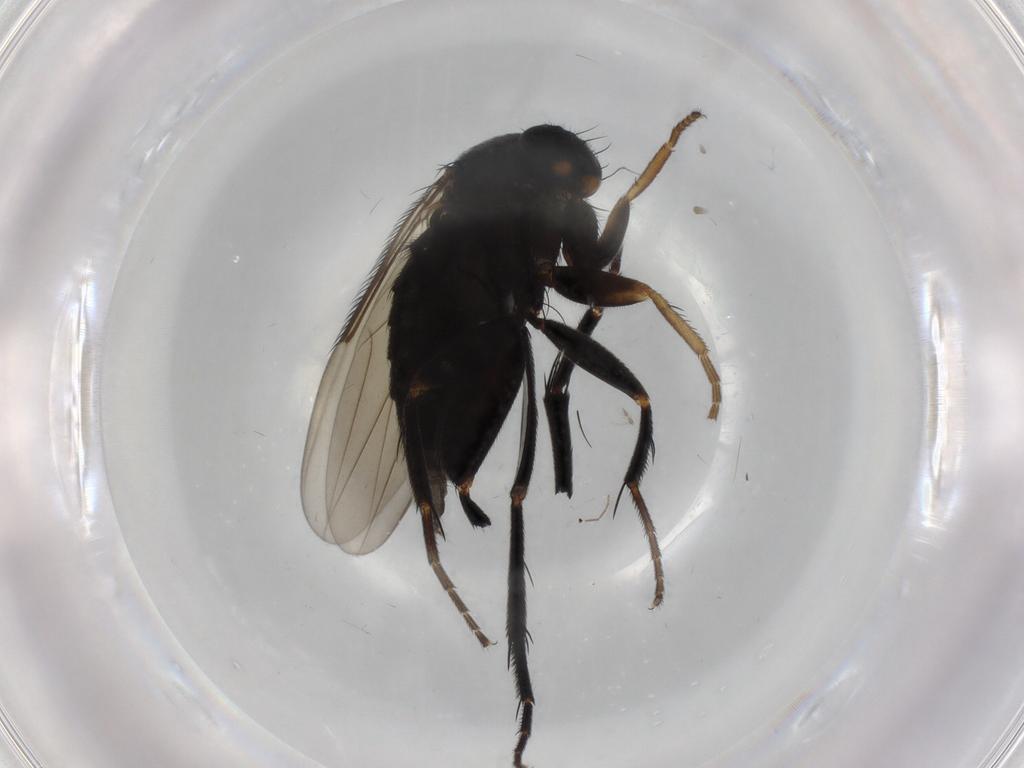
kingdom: Animalia
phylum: Arthropoda
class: Insecta
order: Diptera
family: Phoridae
